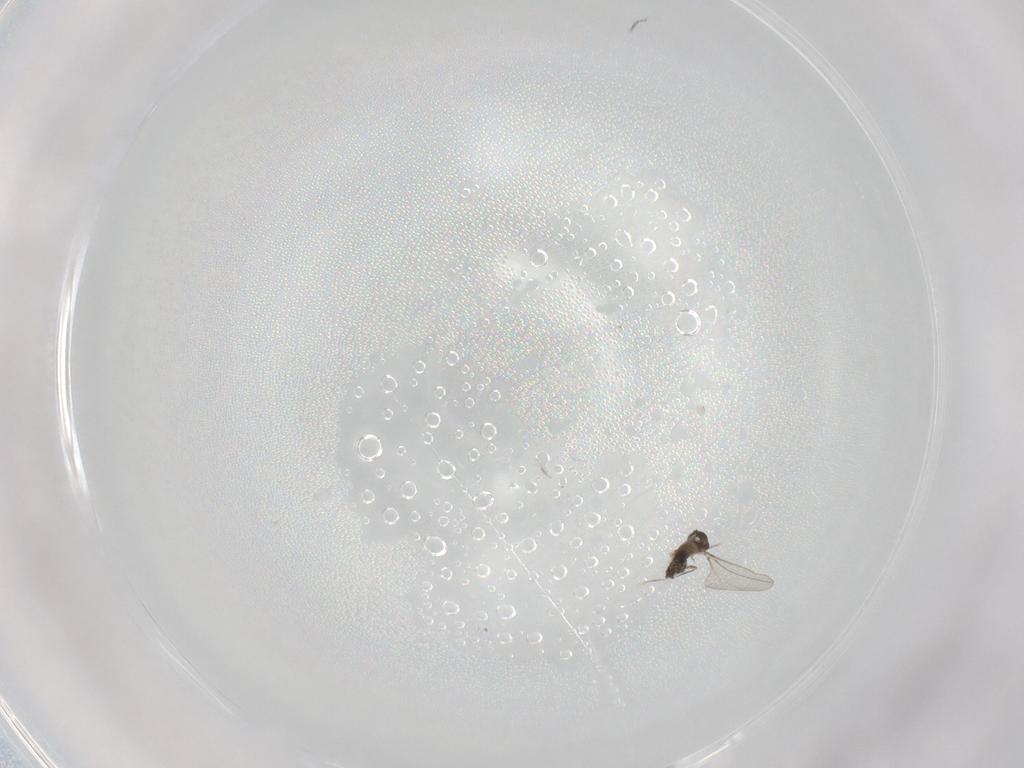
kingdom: Animalia
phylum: Arthropoda
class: Insecta
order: Diptera
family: Cecidomyiidae
